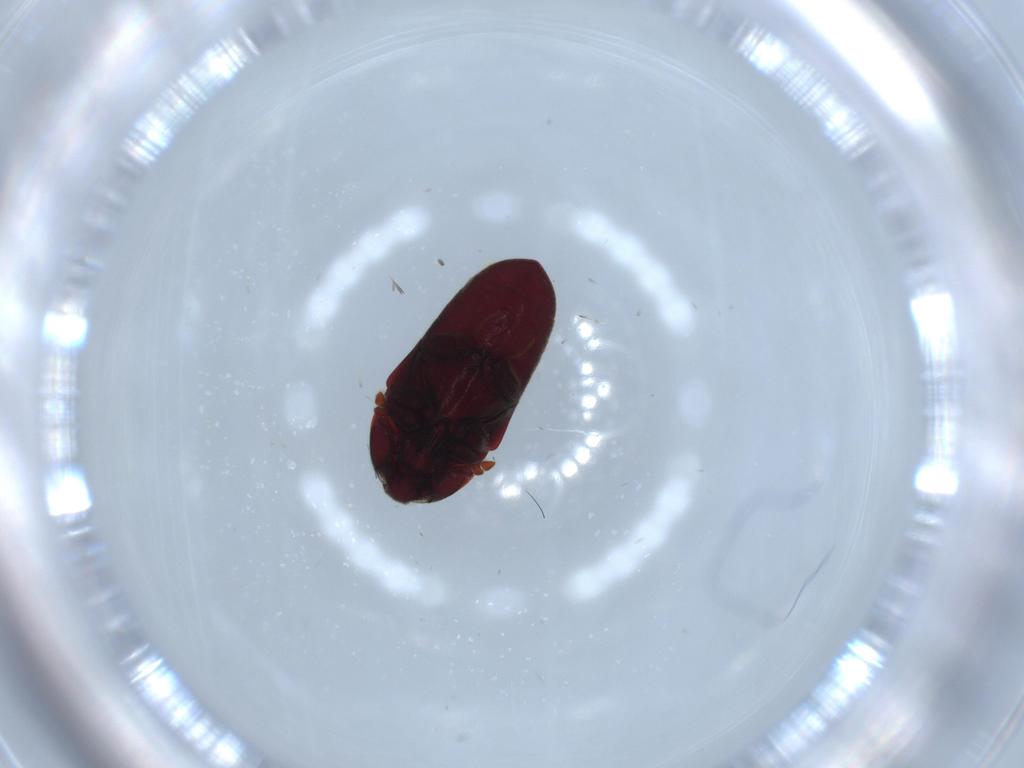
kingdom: Animalia
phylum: Arthropoda
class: Insecta
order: Coleoptera
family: Throscidae
